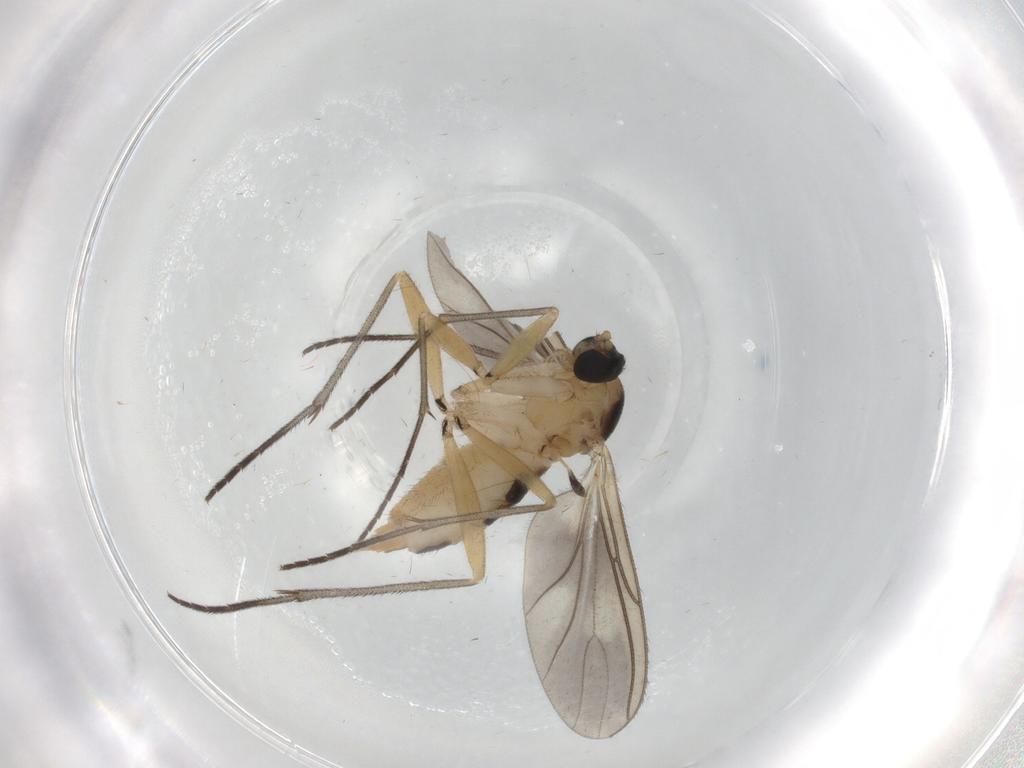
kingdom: Animalia
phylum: Arthropoda
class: Insecta
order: Diptera
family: Sciaridae
